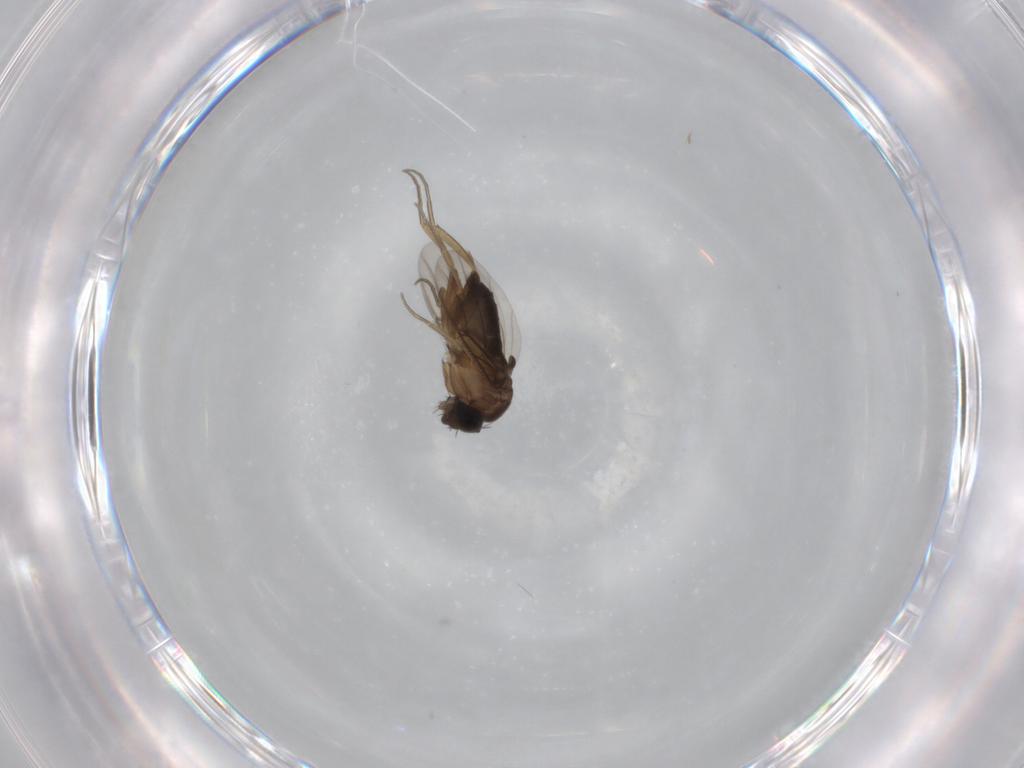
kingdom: Animalia
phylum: Arthropoda
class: Insecta
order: Diptera
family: Phoridae
